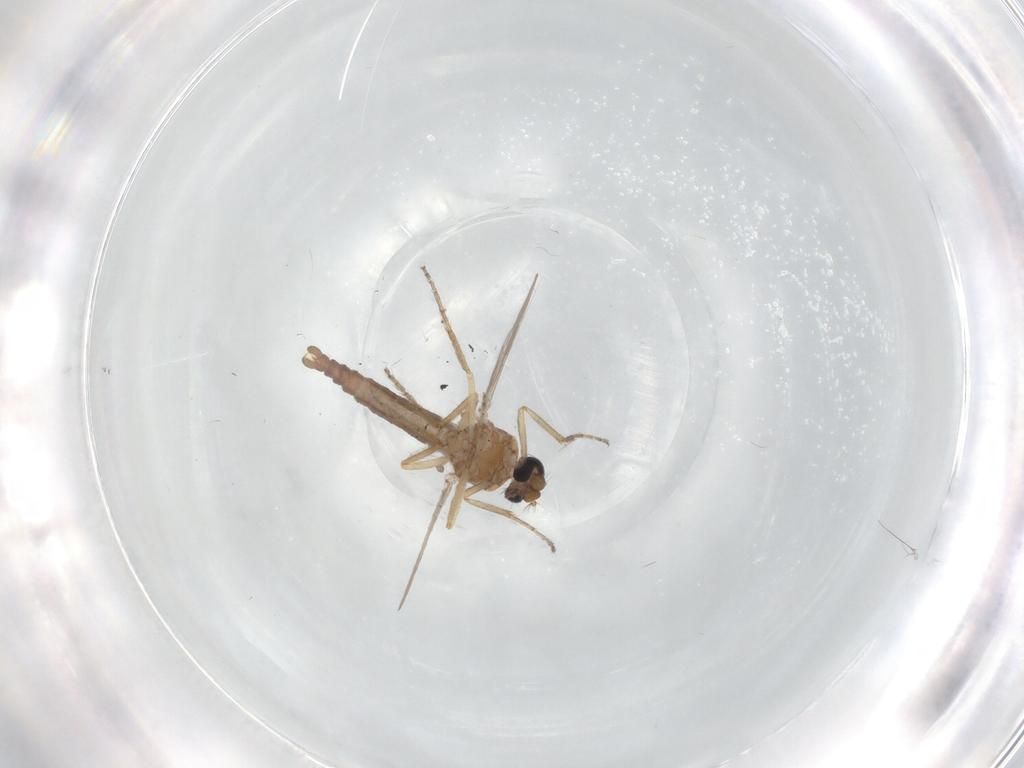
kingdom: Animalia
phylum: Arthropoda
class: Insecta
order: Diptera
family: Ceratopogonidae
